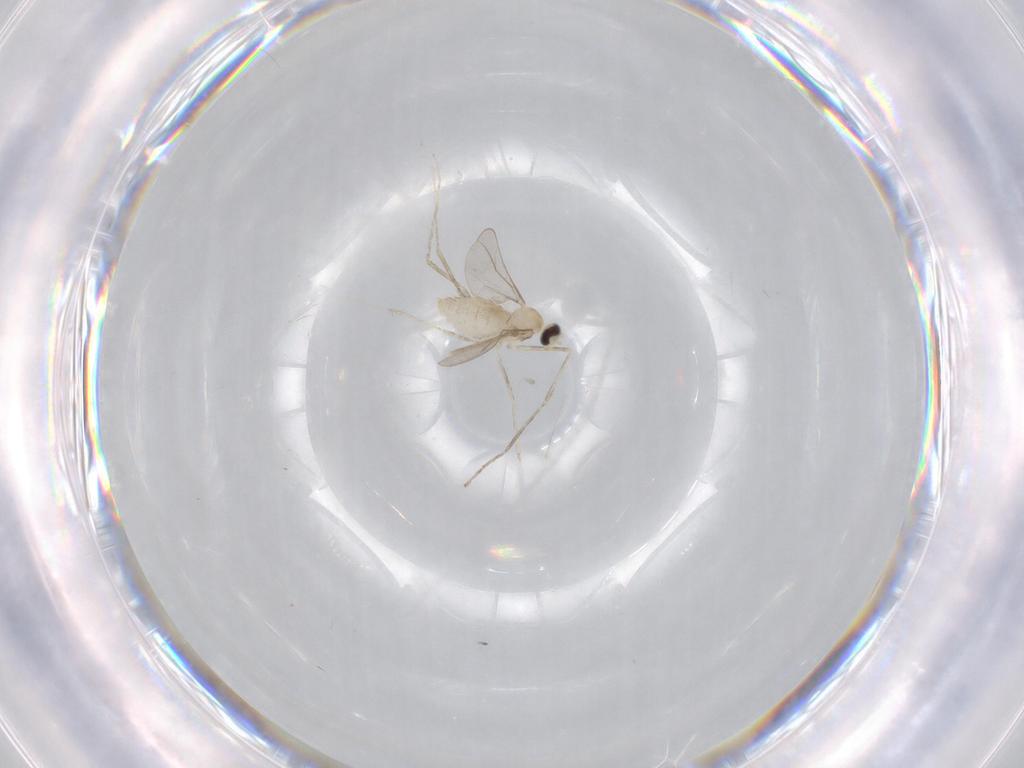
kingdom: Animalia
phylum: Arthropoda
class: Insecta
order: Diptera
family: Cecidomyiidae
